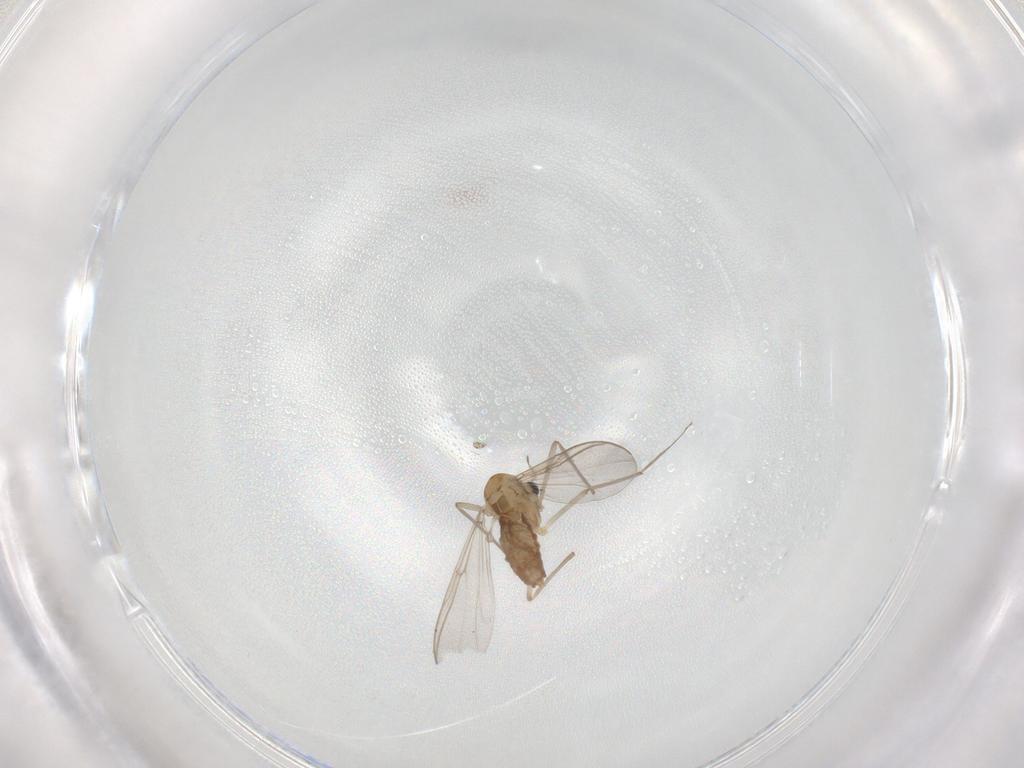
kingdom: Animalia
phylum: Arthropoda
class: Insecta
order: Diptera
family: Chironomidae
